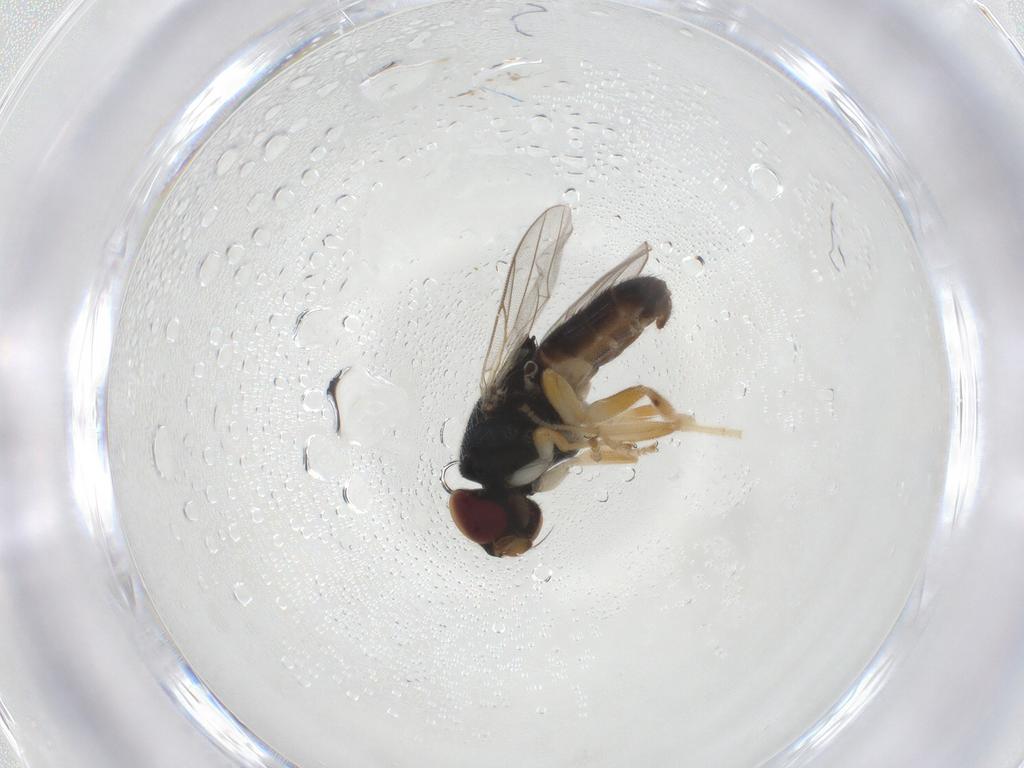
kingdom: Animalia
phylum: Arthropoda
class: Insecta
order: Diptera
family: Chloropidae
